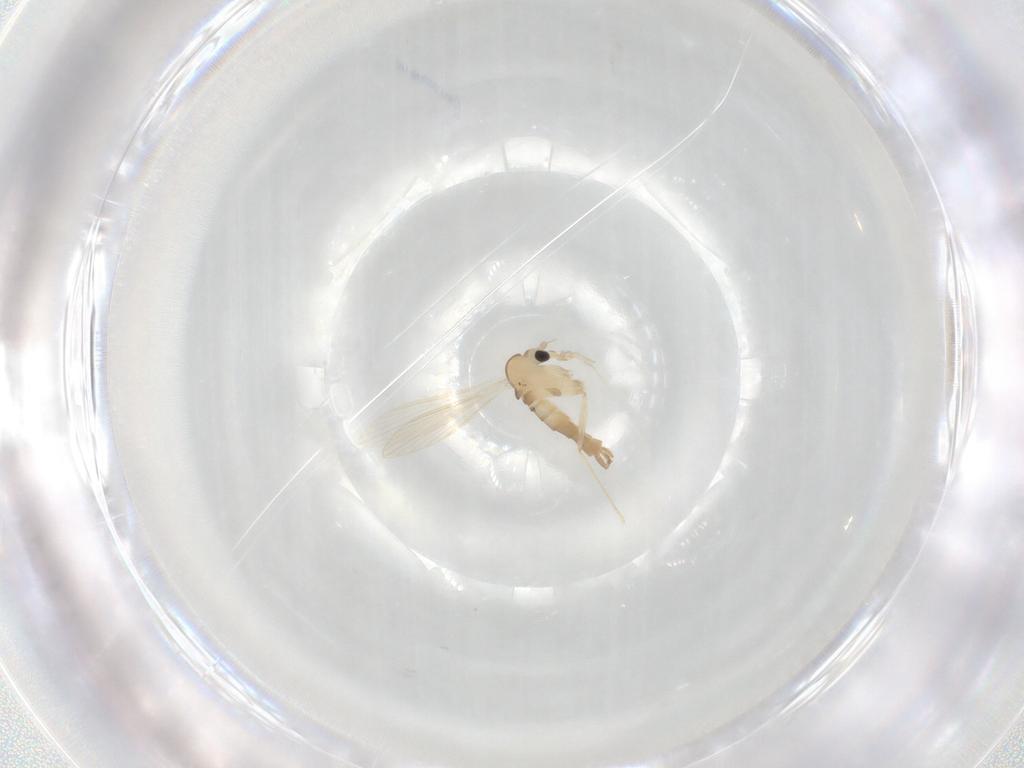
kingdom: Animalia
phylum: Arthropoda
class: Insecta
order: Diptera
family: Psychodidae
